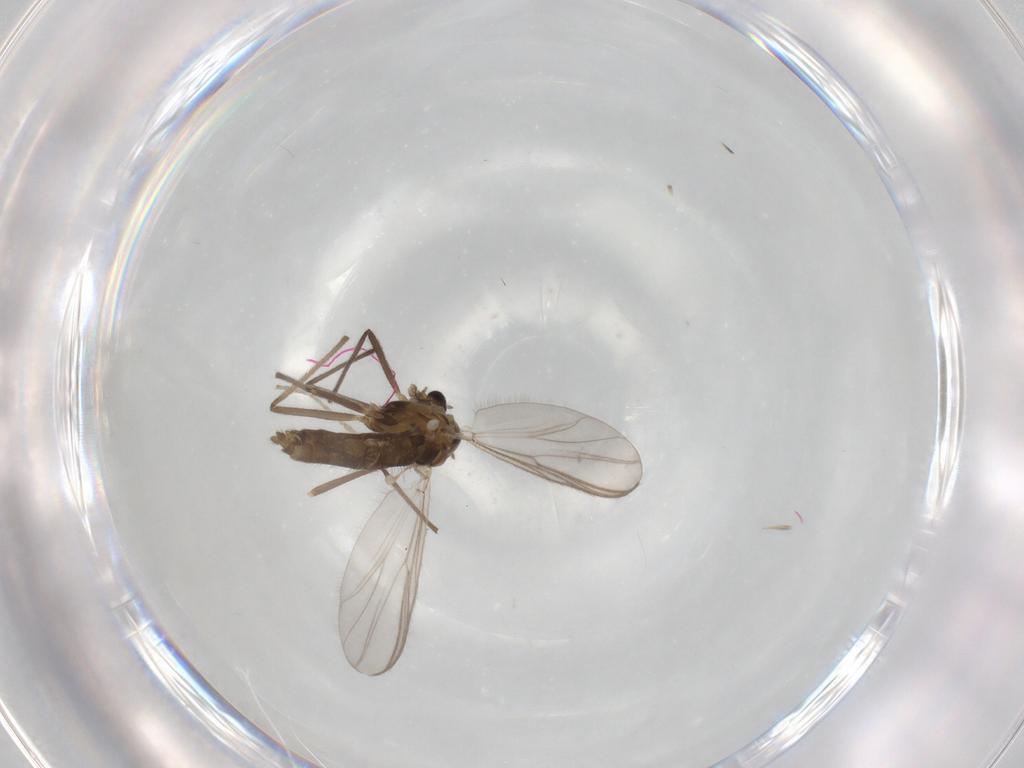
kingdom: Animalia
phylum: Arthropoda
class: Insecta
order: Diptera
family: Chironomidae
